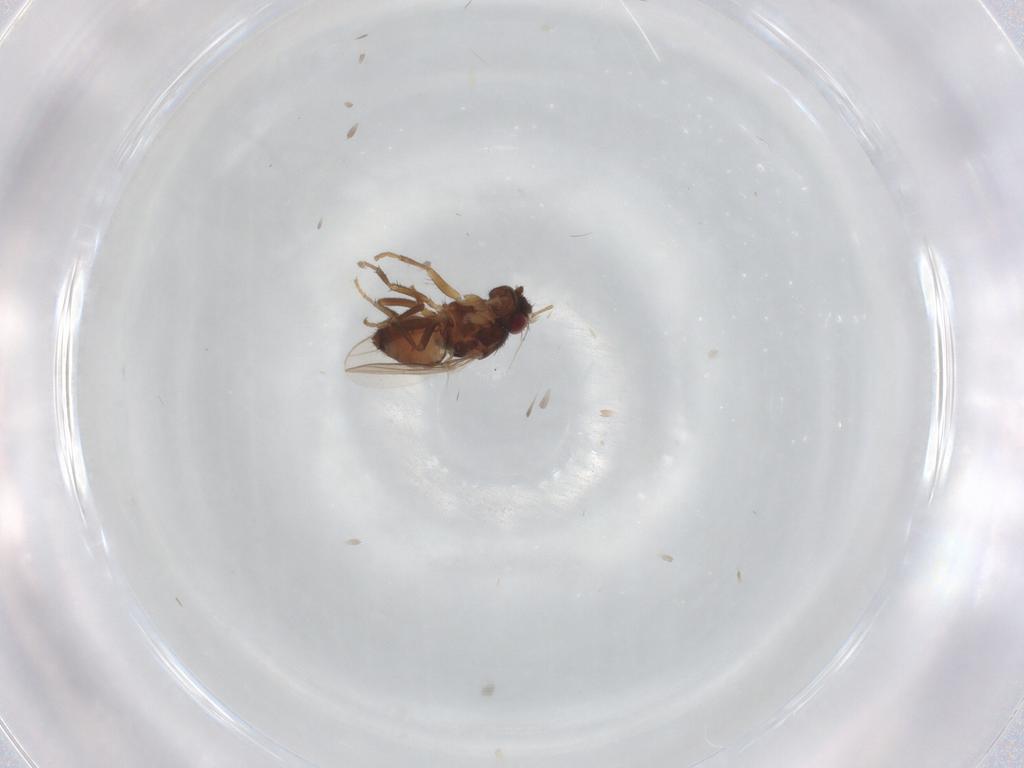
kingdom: Animalia
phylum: Arthropoda
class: Insecta
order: Diptera
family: Sphaeroceridae
